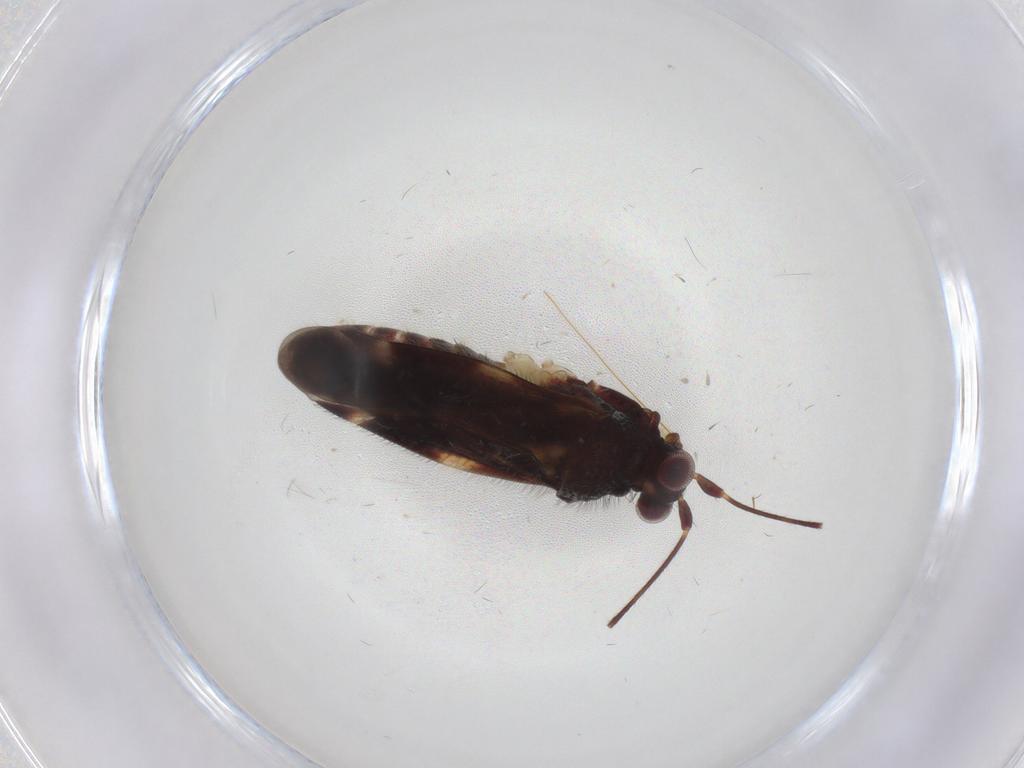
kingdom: Animalia
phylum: Arthropoda
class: Insecta
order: Hemiptera
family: Miridae
